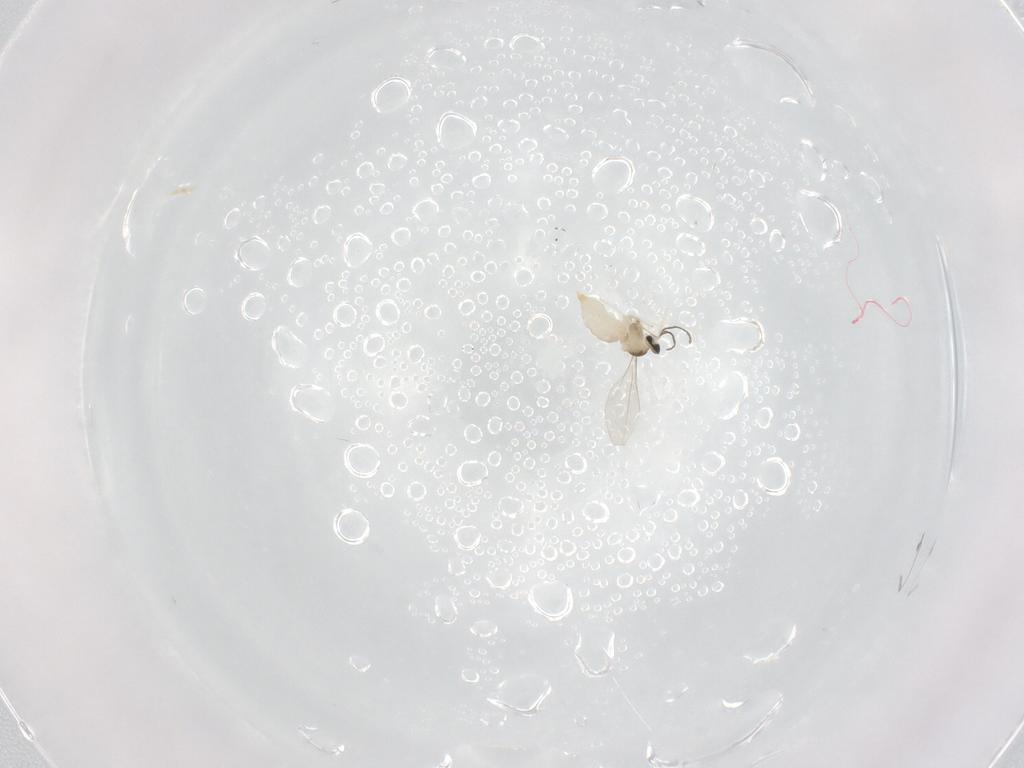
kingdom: Animalia
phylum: Arthropoda
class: Insecta
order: Diptera
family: Cecidomyiidae
